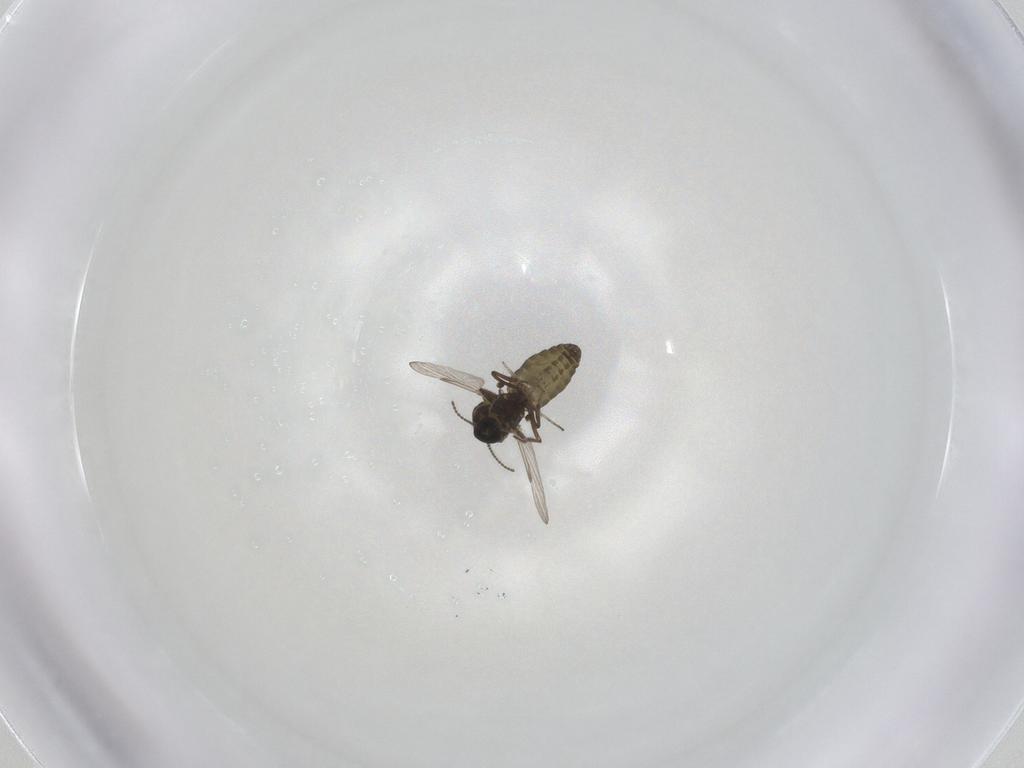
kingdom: Animalia
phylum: Arthropoda
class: Insecta
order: Diptera
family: Ceratopogonidae
